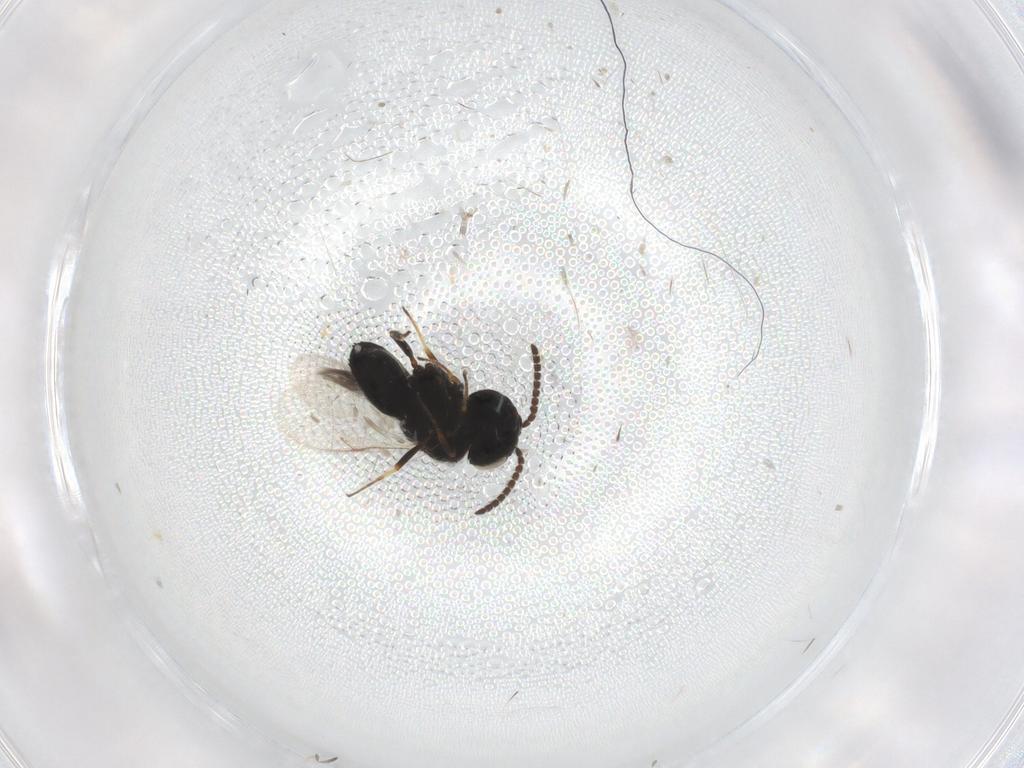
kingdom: Animalia
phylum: Arthropoda
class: Insecta
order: Hymenoptera
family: Scelionidae
